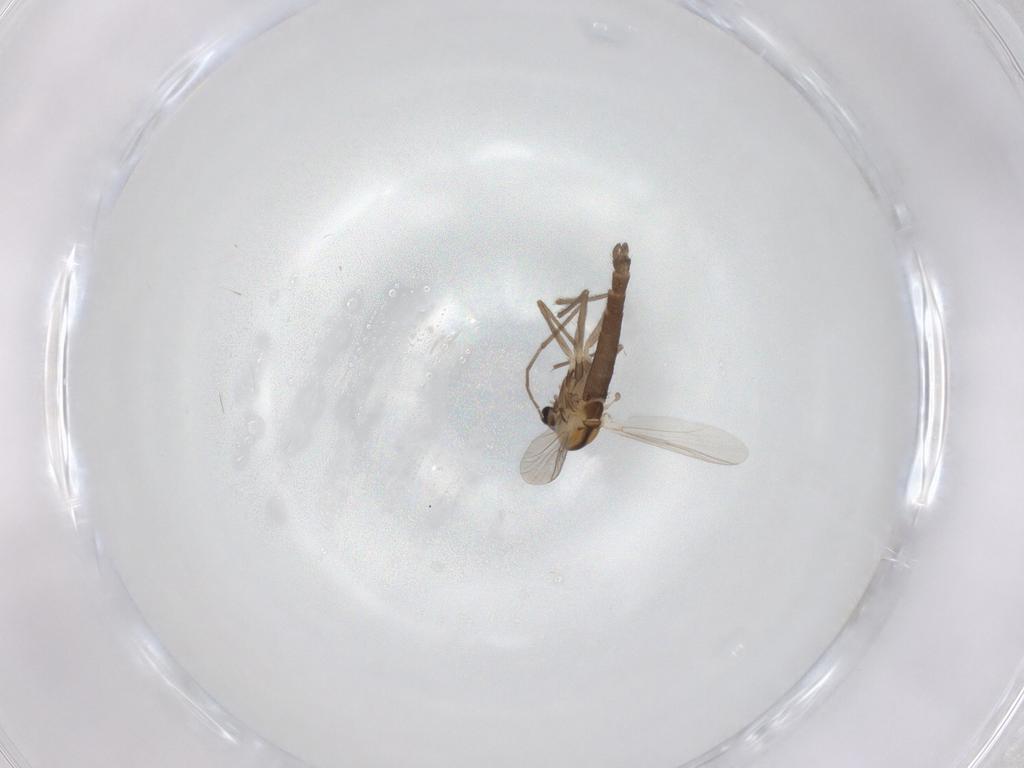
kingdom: Animalia
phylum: Arthropoda
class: Insecta
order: Diptera
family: Chironomidae
